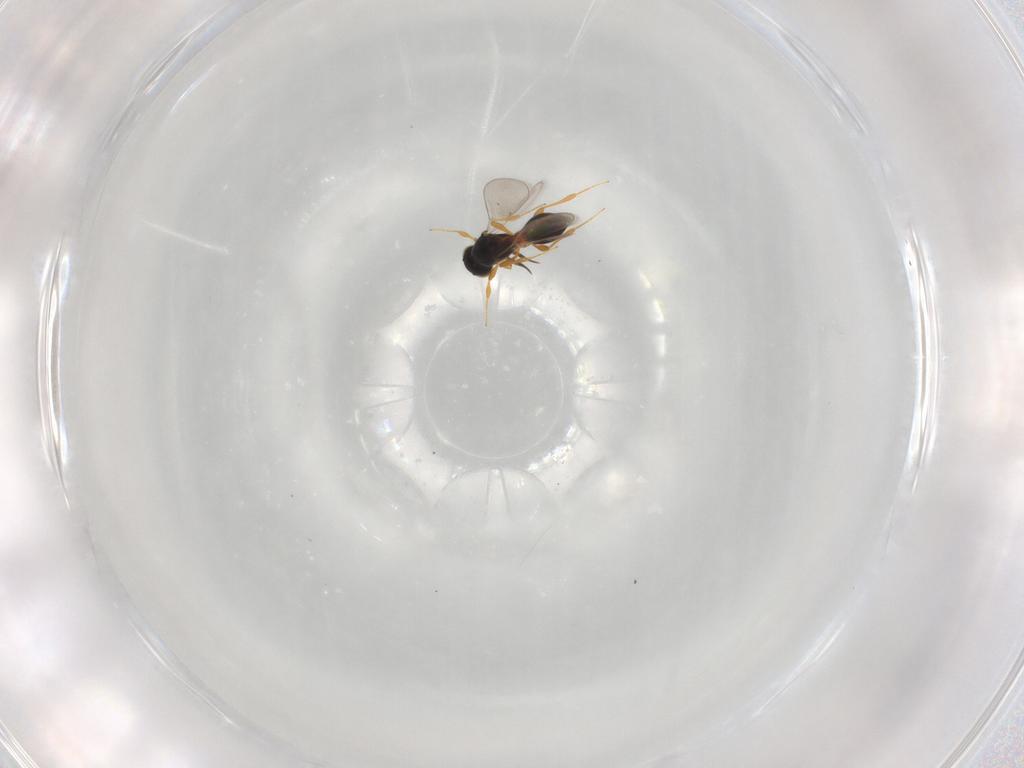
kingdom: Animalia
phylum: Arthropoda
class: Insecta
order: Hymenoptera
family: Platygastridae
